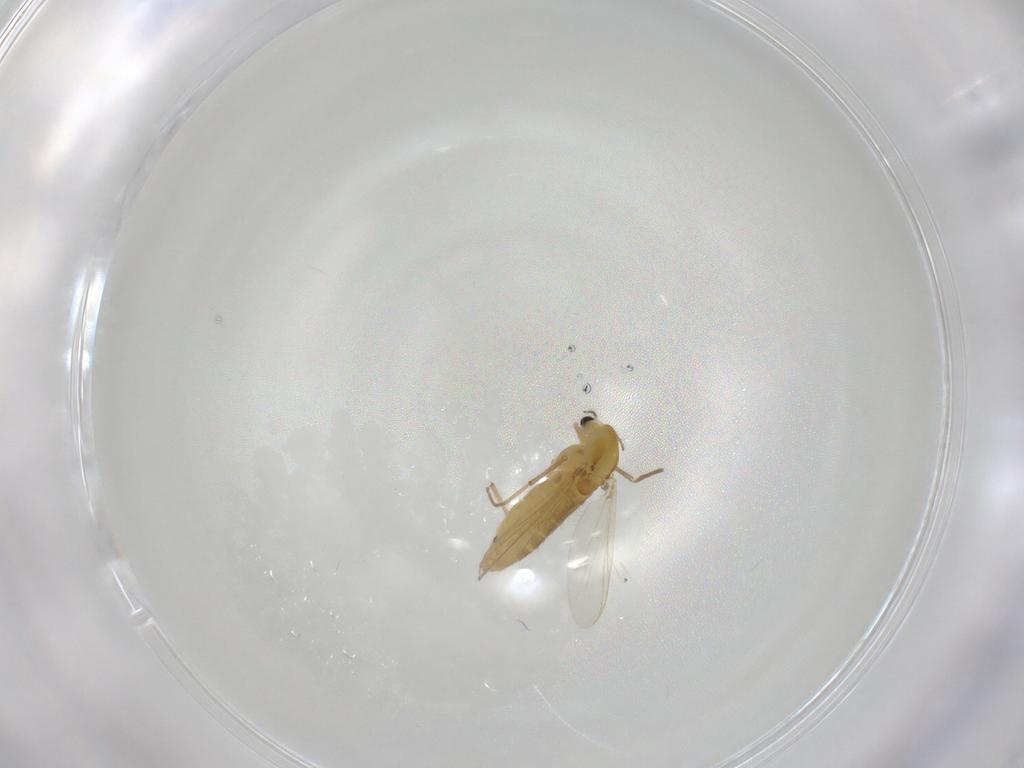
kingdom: Animalia
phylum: Arthropoda
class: Insecta
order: Diptera
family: Chironomidae
